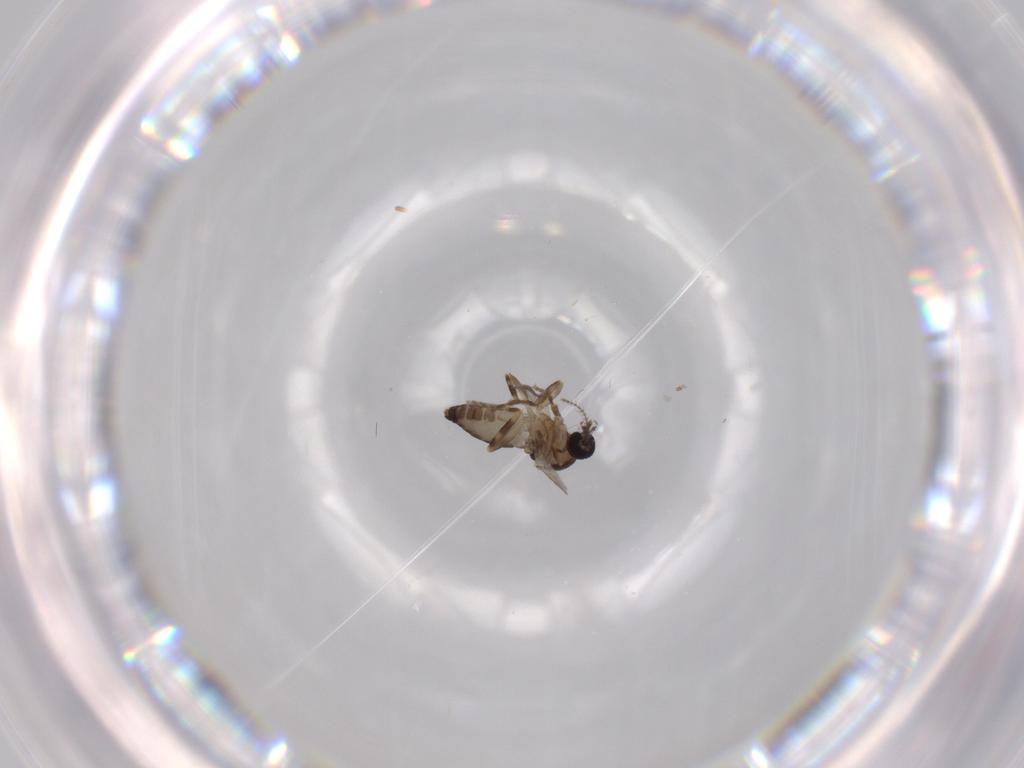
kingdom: Animalia
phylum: Arthropoda
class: Insecta
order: Diptera
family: Ceratopogonidae
